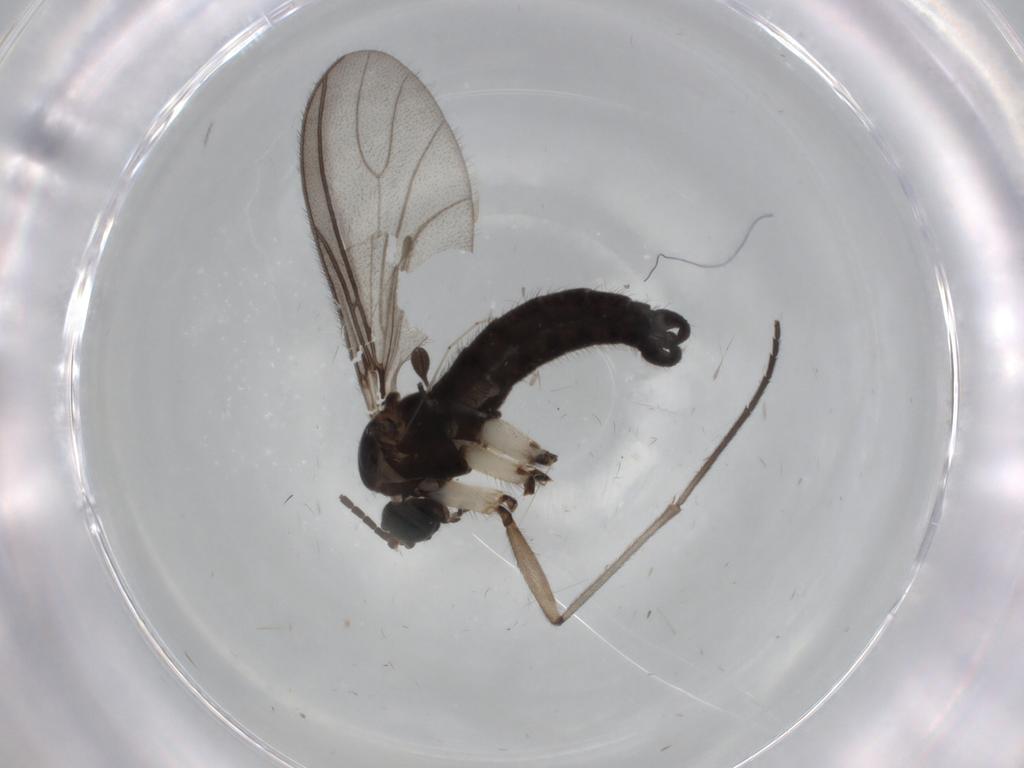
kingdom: Animalia
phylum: Arthropoda
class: Insecta
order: Diptera
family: Sciaridae
